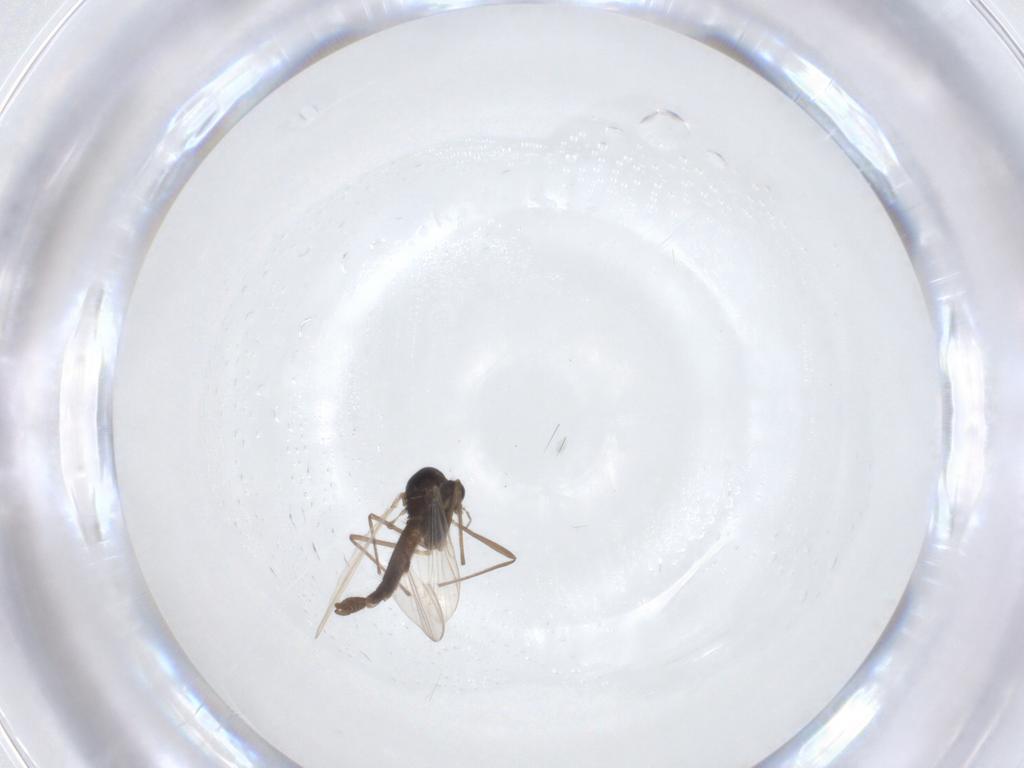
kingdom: Animalia
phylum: Arthropoda
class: Insecta
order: Diptera
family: Chironomidae
